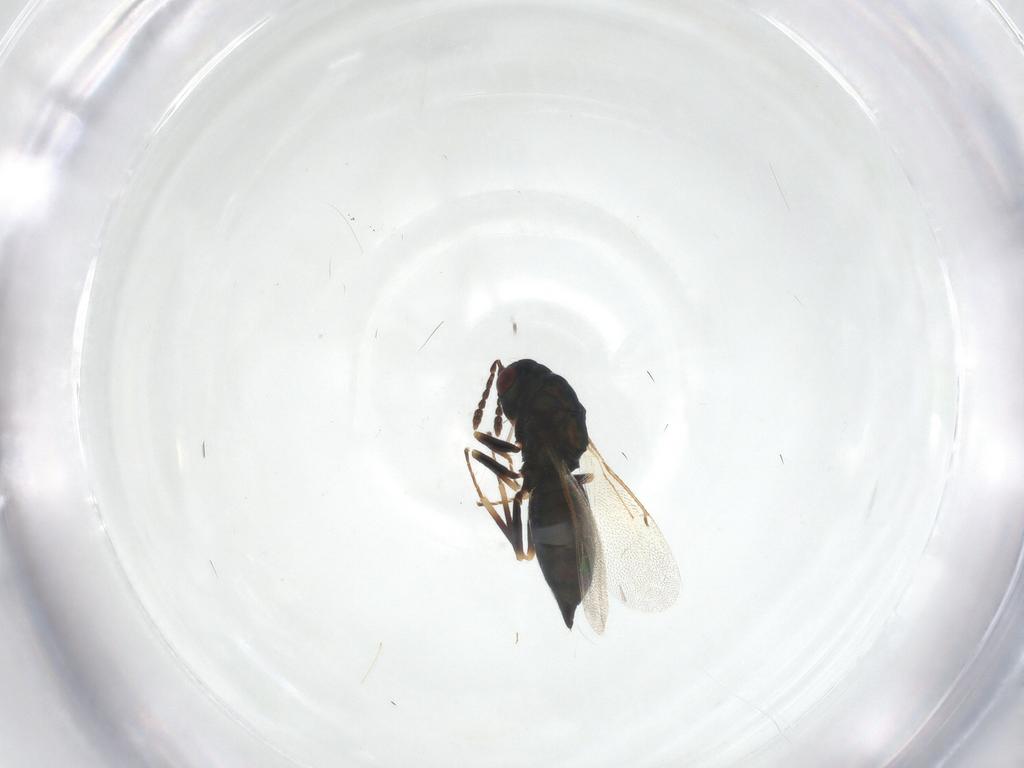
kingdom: Animalia
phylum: Arthropoda
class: Insecta
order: Hymenoptera
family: Eulophidae
